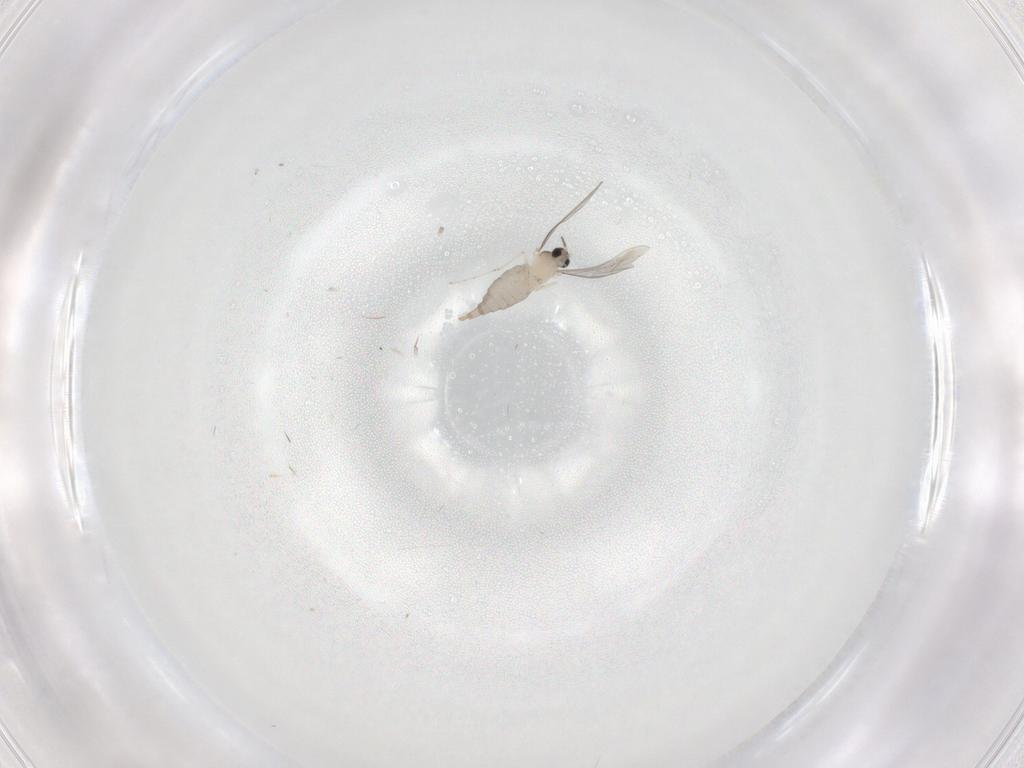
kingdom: Animalia
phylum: Arthropoda
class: Insecta
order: Diptera
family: Cecidomyiidae
